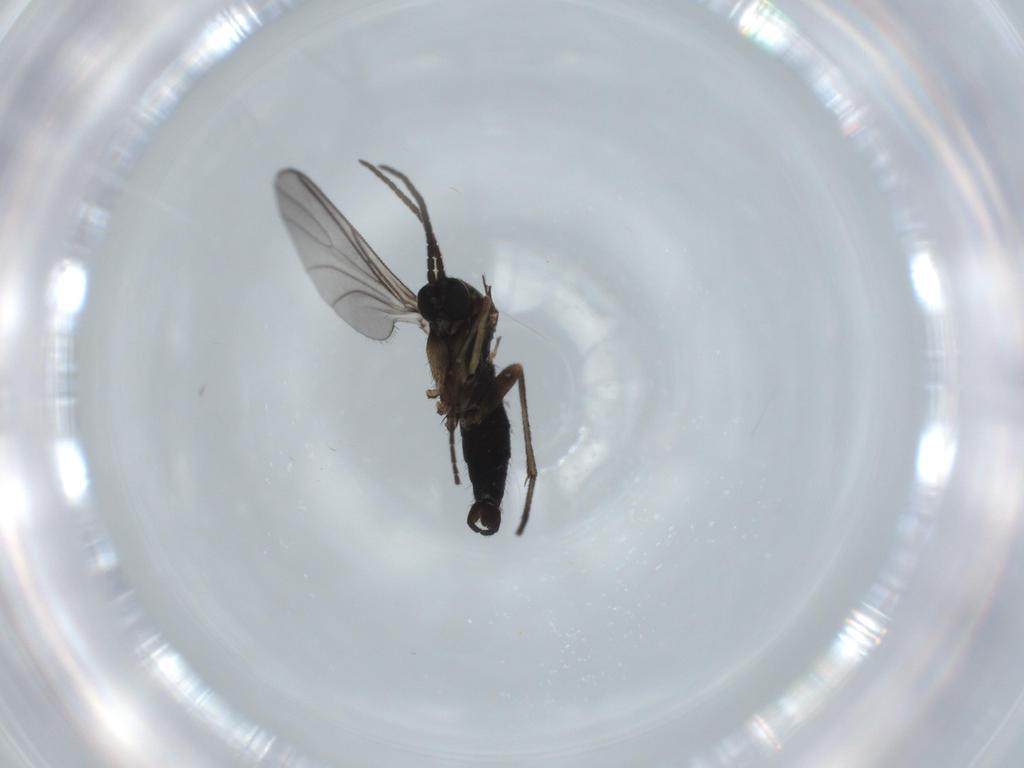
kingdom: Animalia
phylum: Arthropoda
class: Insecta
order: Diptera
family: Sciaridae
